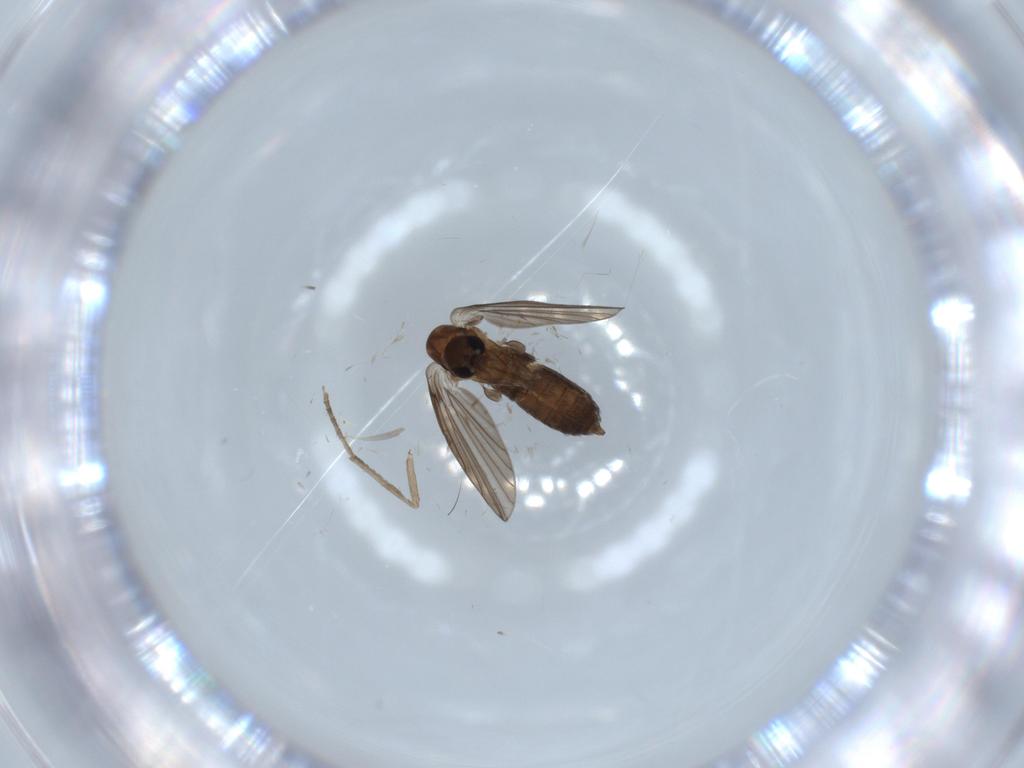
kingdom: Animalia
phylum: Arthropoda
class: Insecta
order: Diptera
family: Psychodidae
